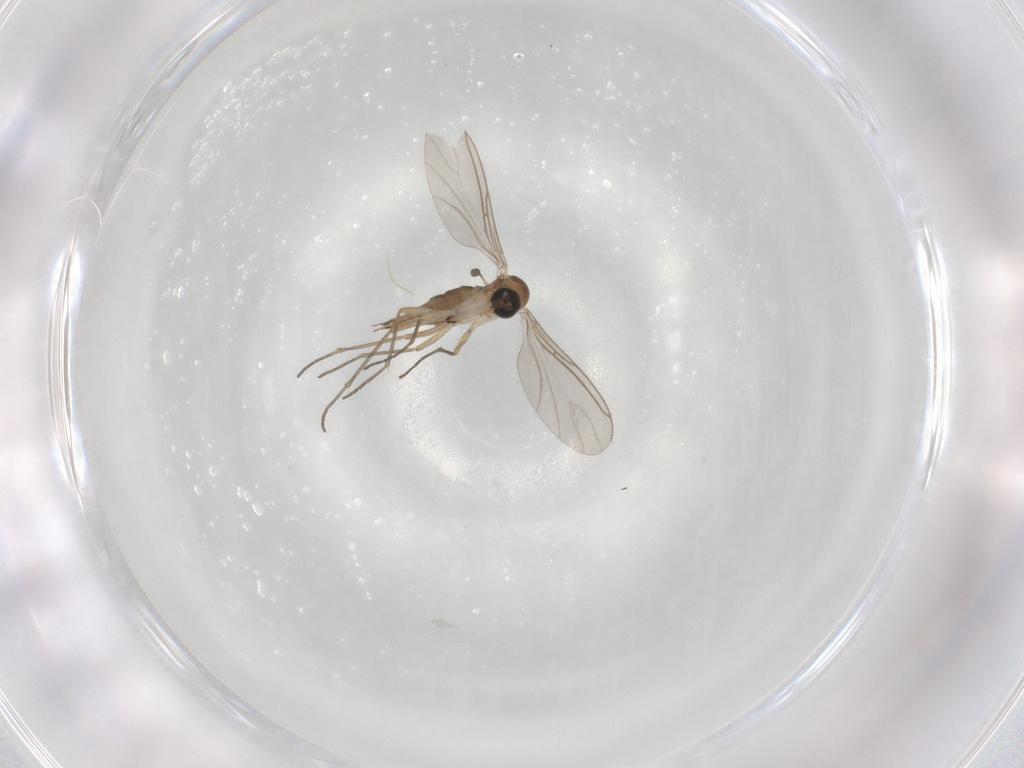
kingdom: Animalia
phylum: Arthropoda
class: Insecta
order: Diptera
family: Sciaridae
